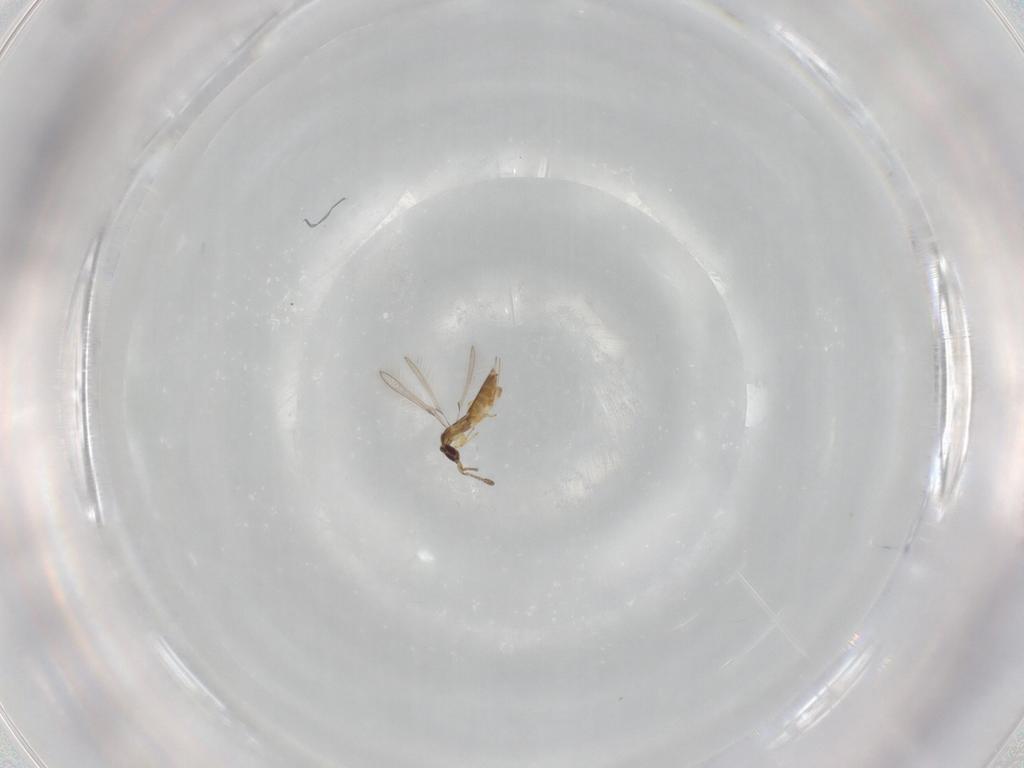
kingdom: Animalia
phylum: Arthropoda
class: Insecta
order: Hymenoptera
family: Mymaridae
